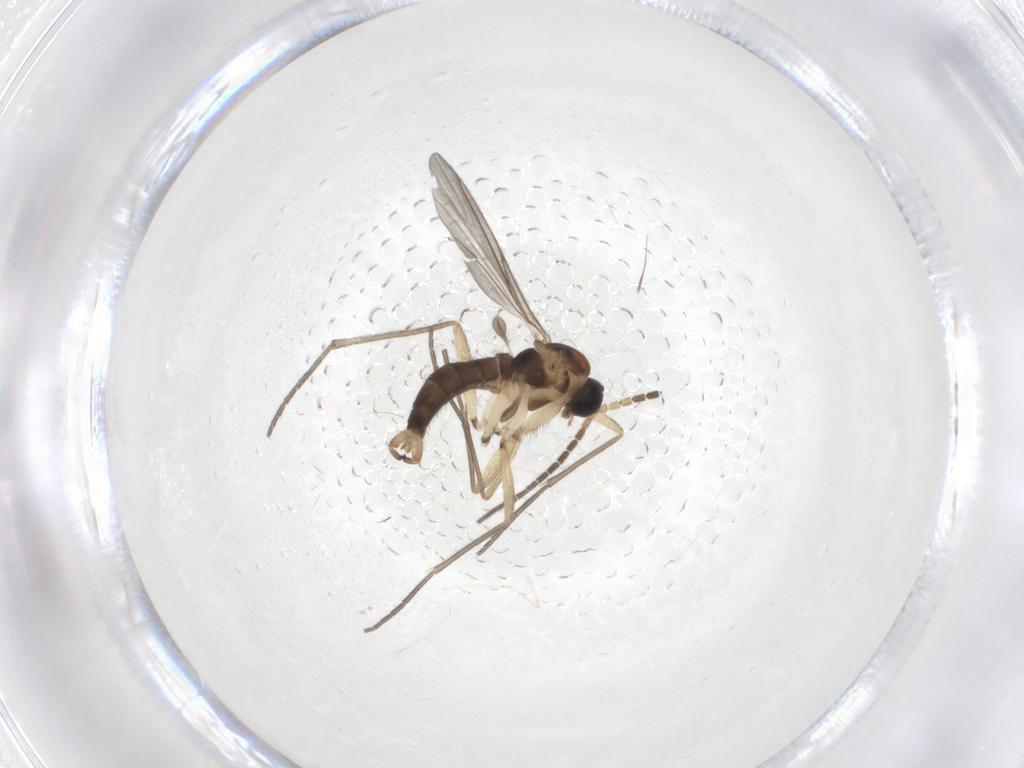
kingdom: Animalia
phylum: Arthropoda
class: Insecta
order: Diptera
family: Sciaridae
